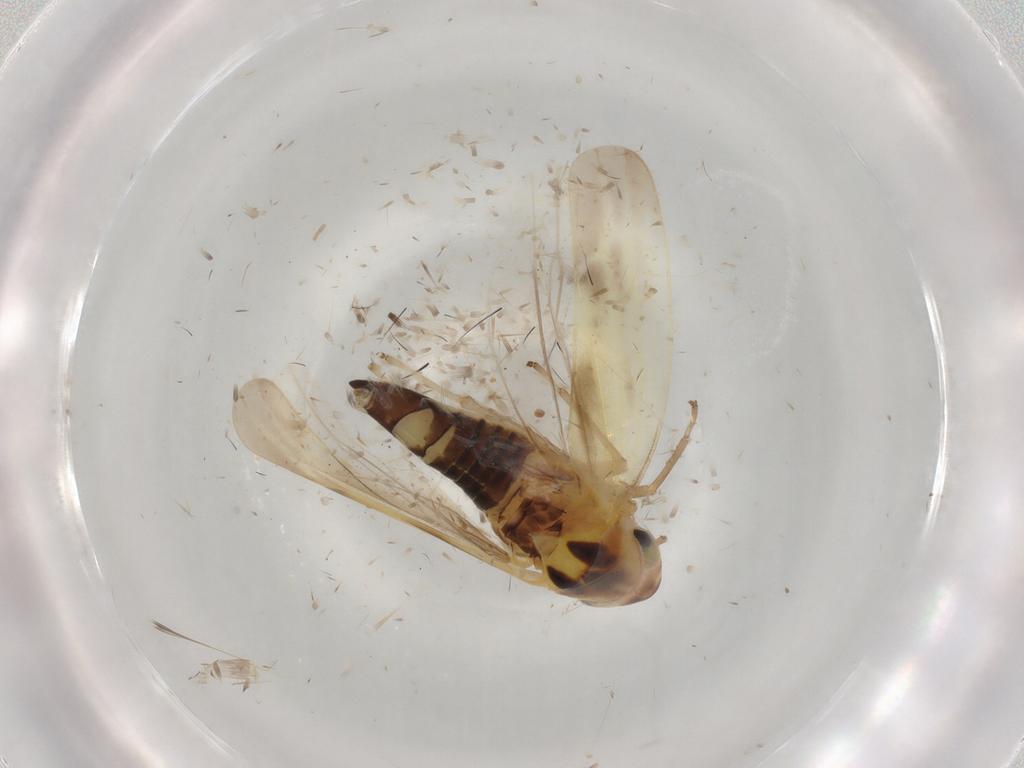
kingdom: Animalia
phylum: Arthropoda
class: Insecta
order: Hemiptera
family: Cicadellidae
